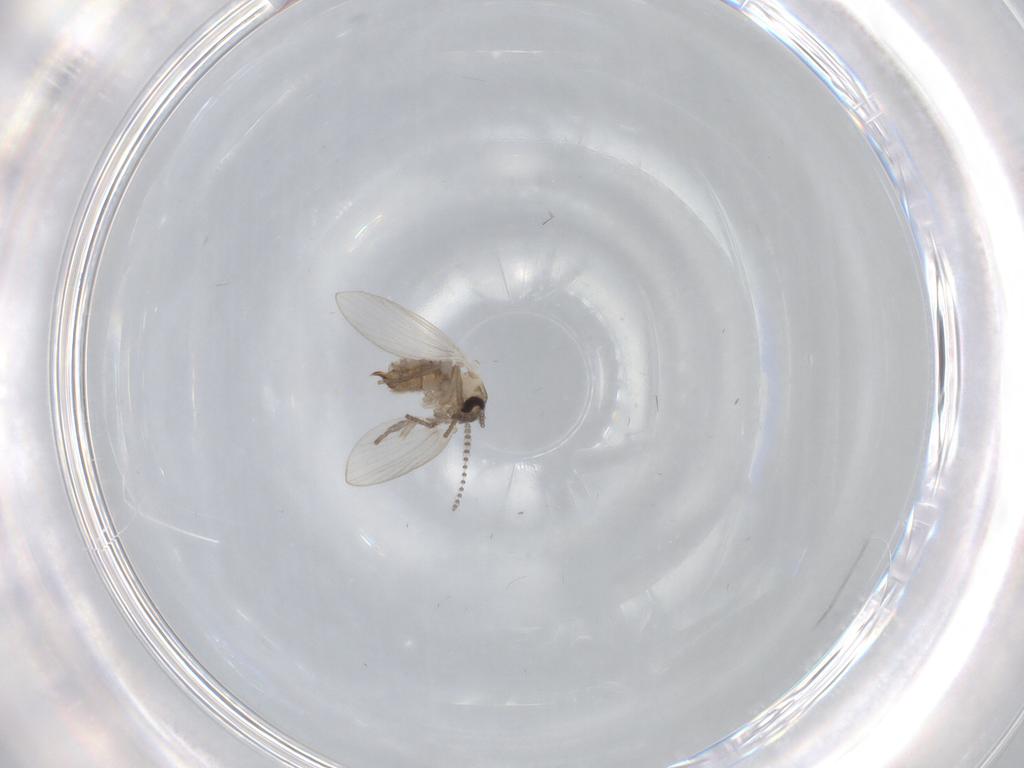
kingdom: Animalia
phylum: Arthropoda
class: Insecta
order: Diptera
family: Psychodidae
